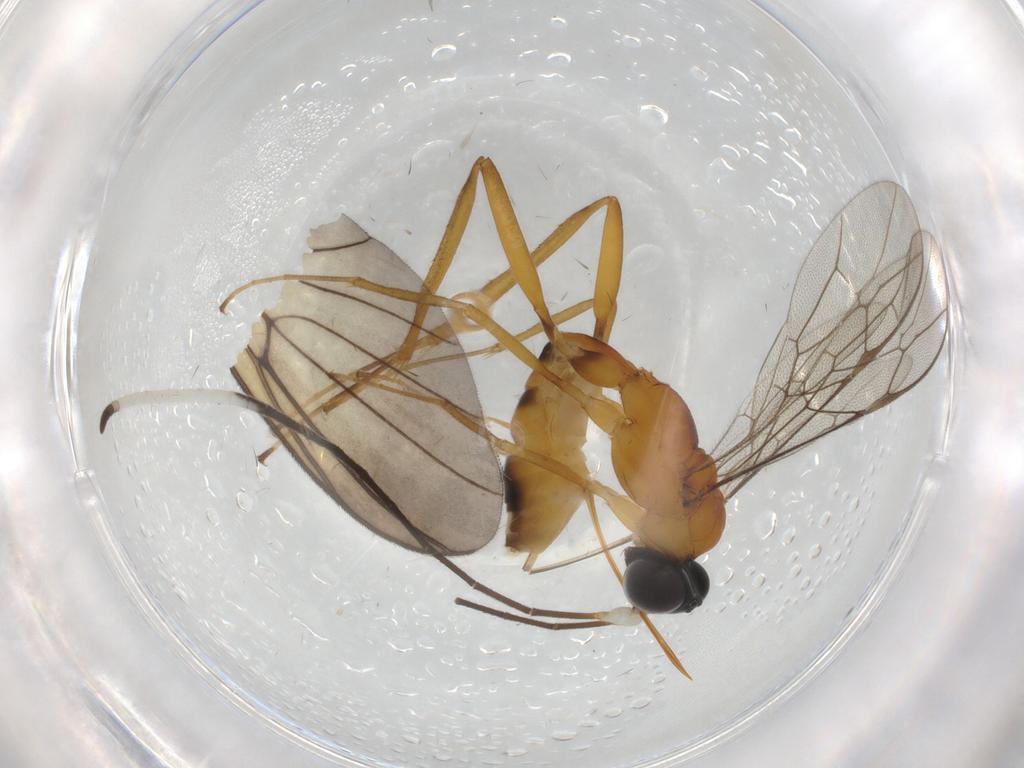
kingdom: Animalia
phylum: Arthropoda
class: Insecta
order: Hymenoptera
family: Ichneumonidae
